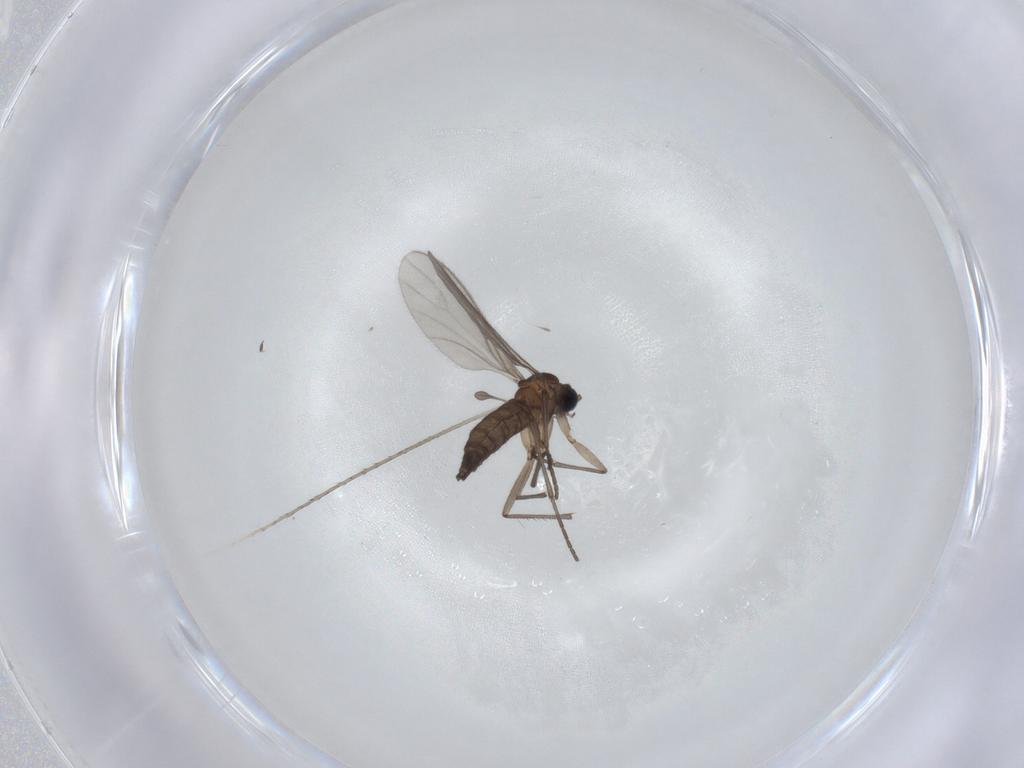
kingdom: Animalia
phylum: Arthropoda
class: Insecta
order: Diptera
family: Sciaridae
